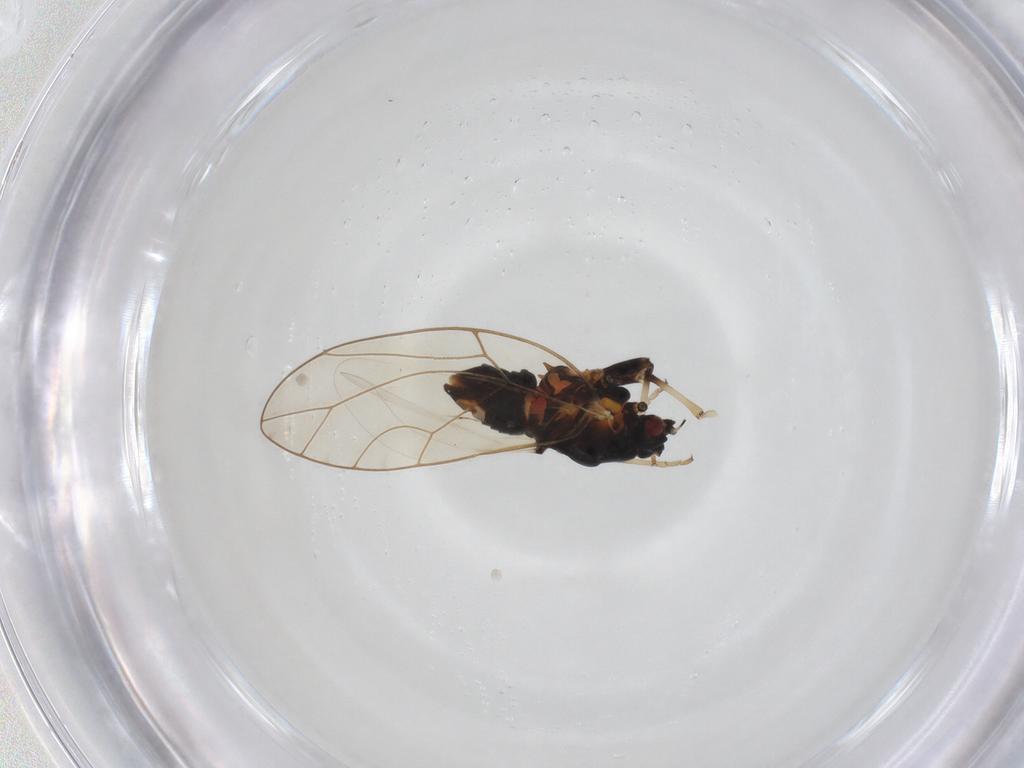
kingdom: Animalia
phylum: Arthropoda
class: Insecta
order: Hemiptera
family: Triozidae
